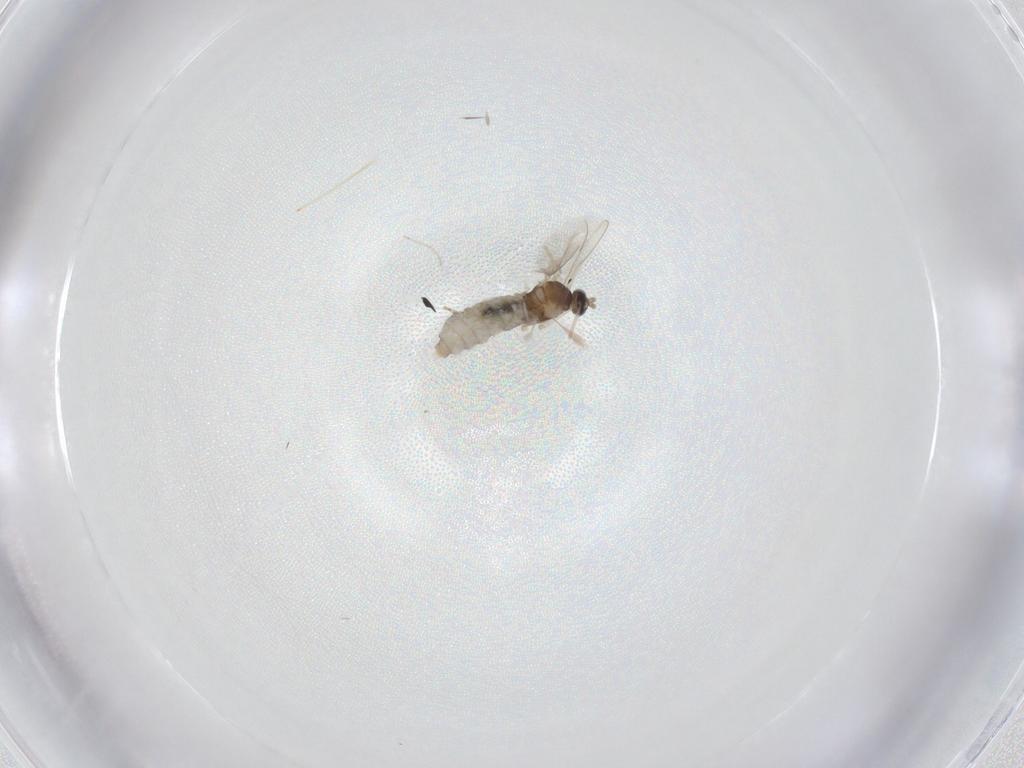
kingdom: Animalia
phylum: Arthropoda
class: Insecta
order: Diptera
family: Cecidomyiidae
